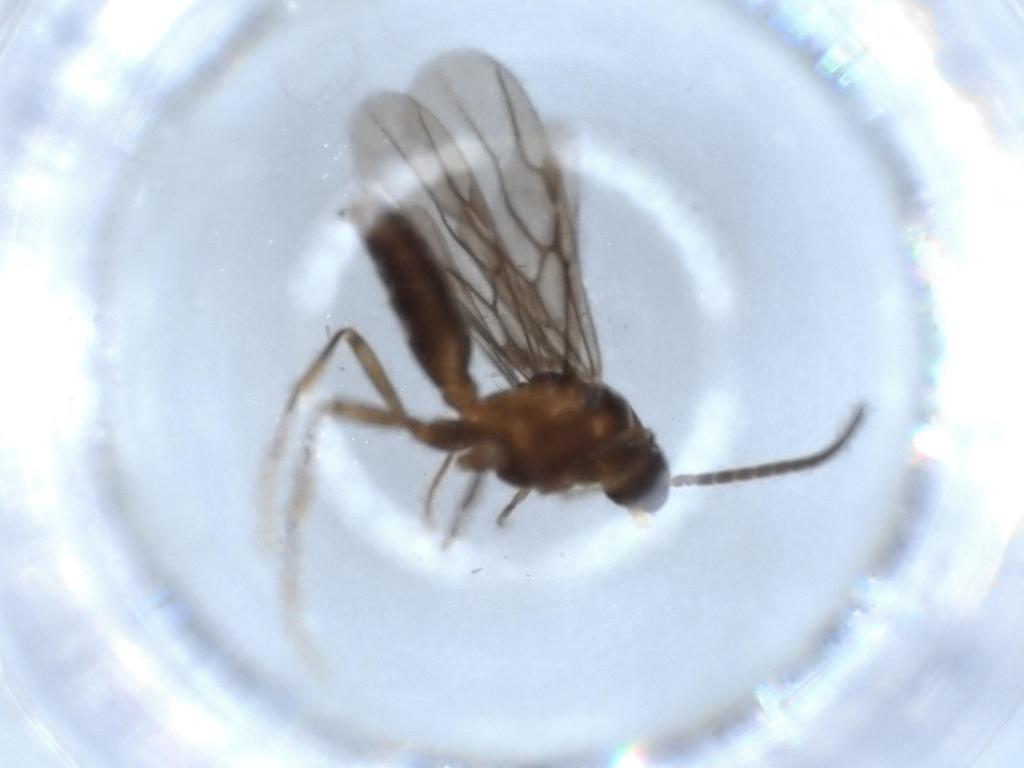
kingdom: Animalia
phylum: Arthropoda
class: Insecta
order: Hymenoptera
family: Formicidae
